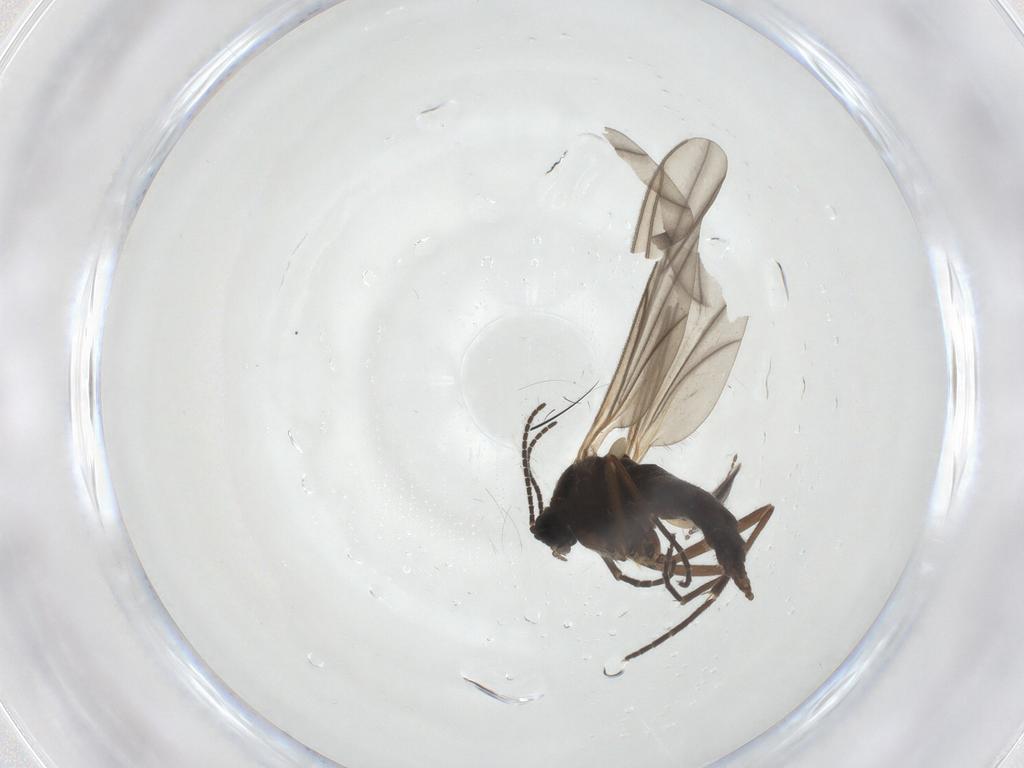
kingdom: Animalia
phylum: Arthropoda
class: Insecta
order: Diptera
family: Sciaridae
